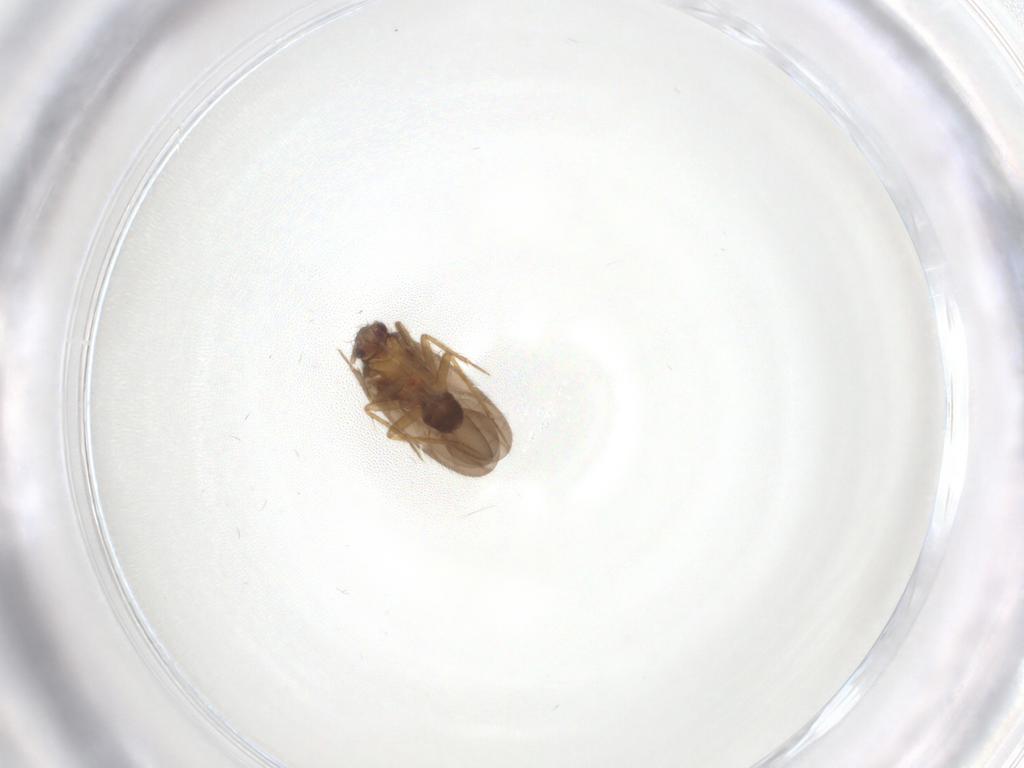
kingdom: Animalia
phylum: Arthropoda
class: Insecta
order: Hemiptera
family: Ceratocombidae
